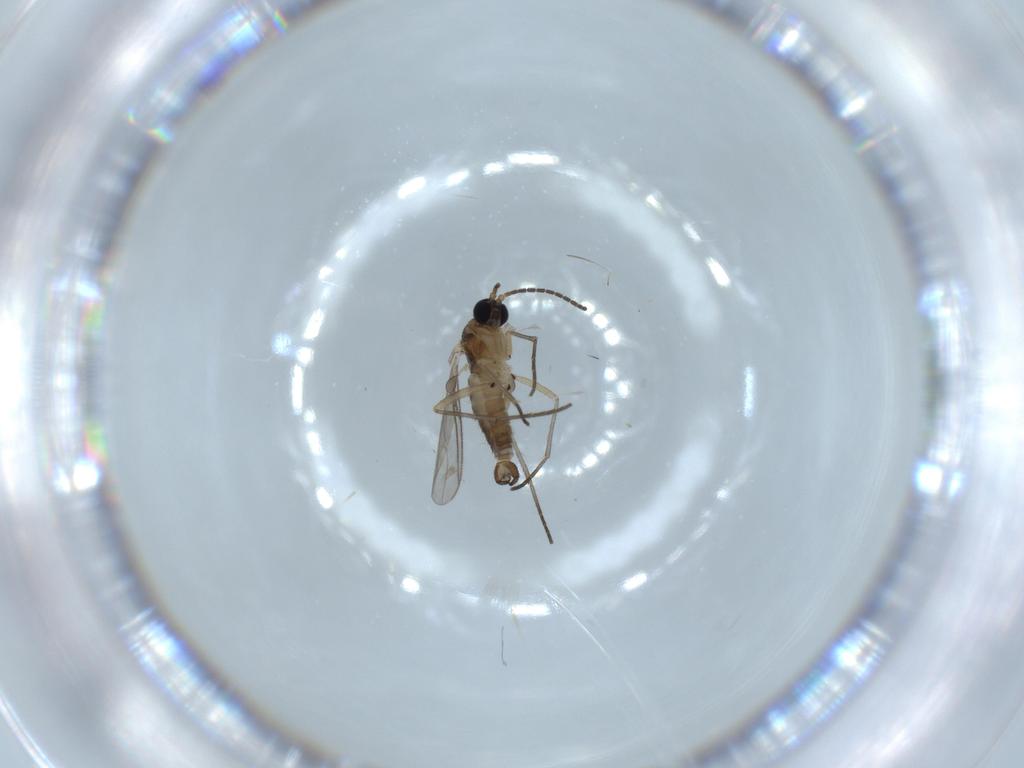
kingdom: Animalia
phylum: Arthropoda
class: Insecta
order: Diptera
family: Sciaridae
